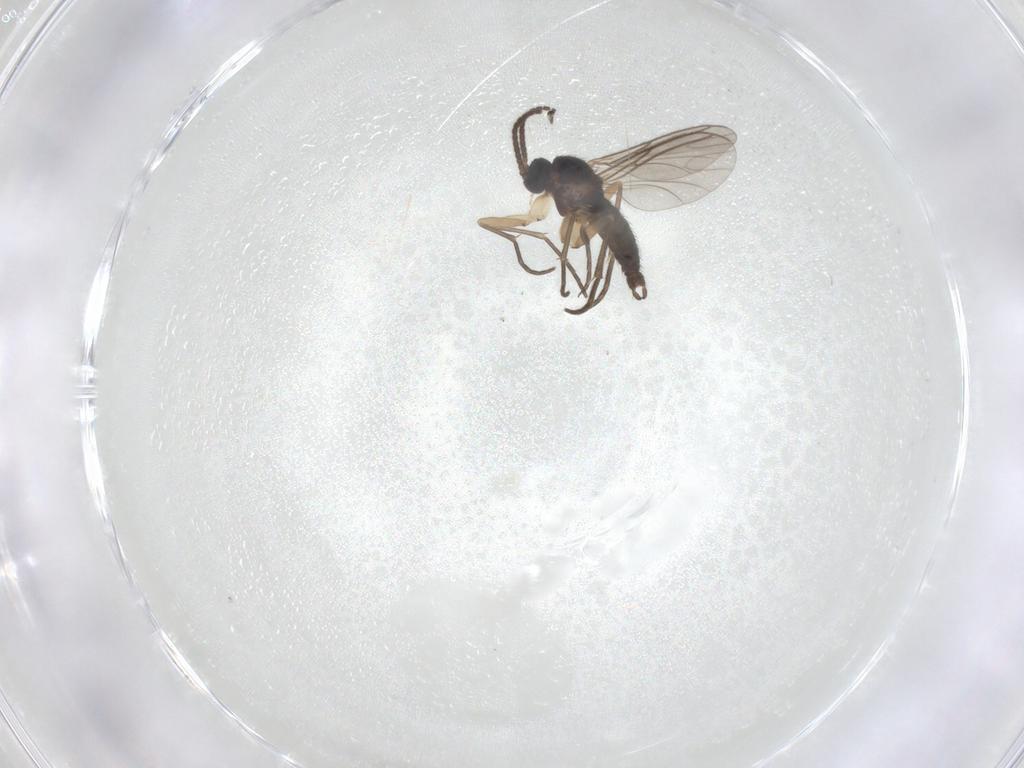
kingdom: Animalia
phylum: Arthropoda
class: Insecta
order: Diptera
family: Sciaridae
